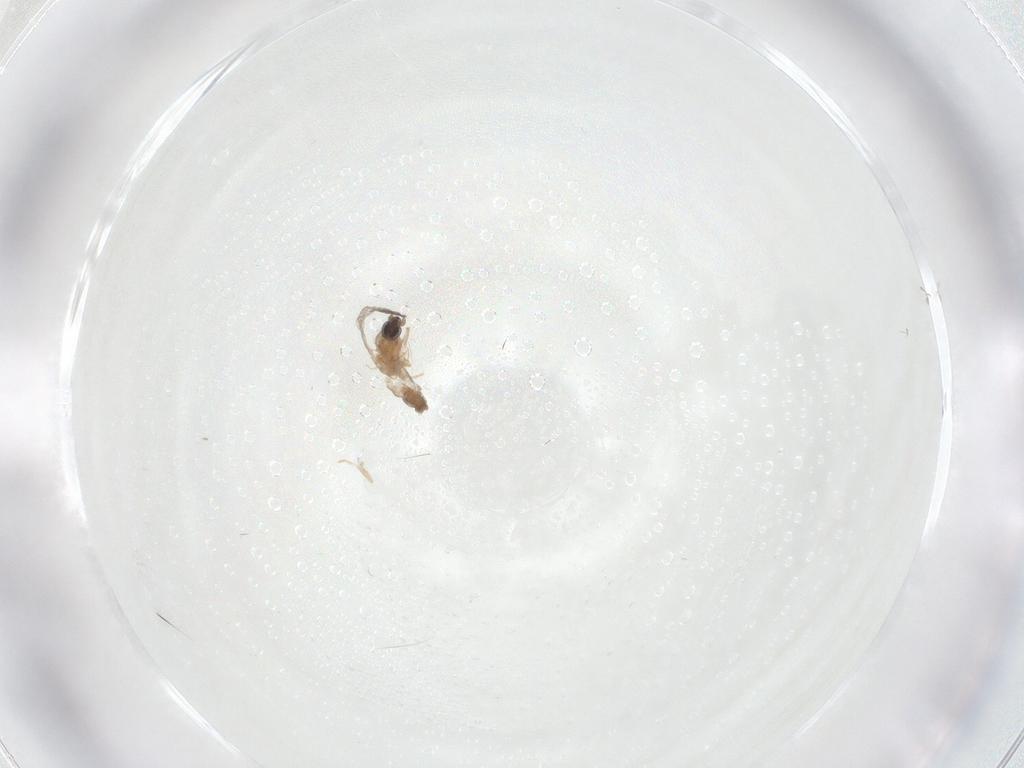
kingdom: Animalia
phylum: Arthropoda
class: Insecta
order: Diptera
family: Cecidomyiidae
